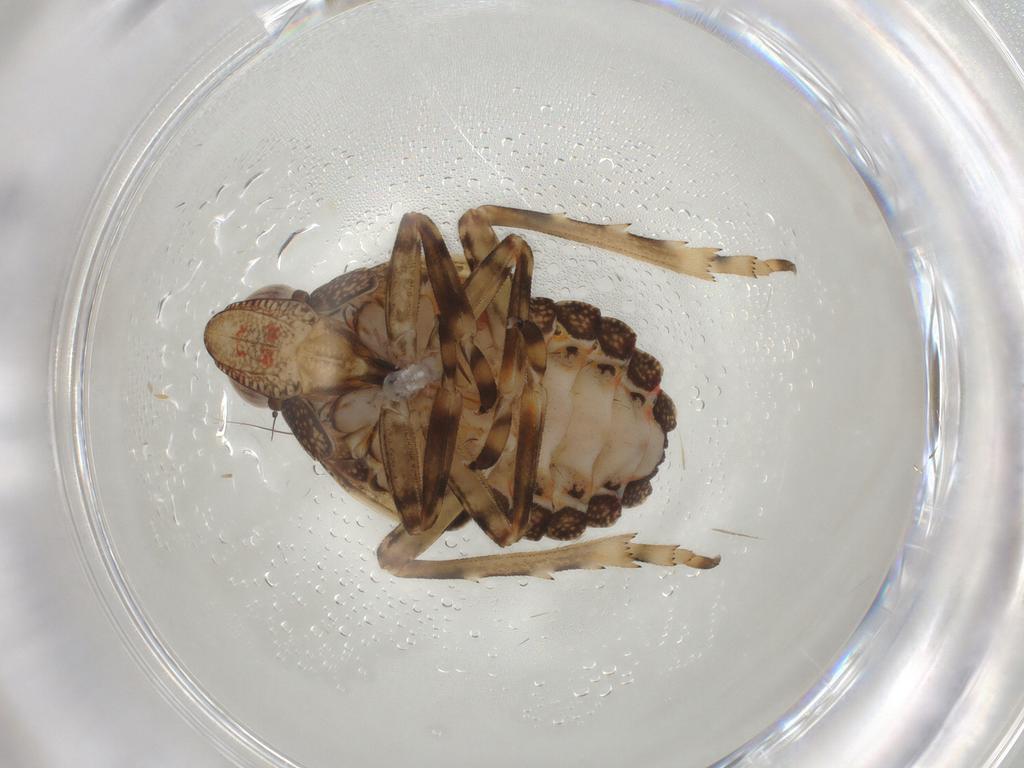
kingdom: Animalia
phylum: Arthropoda
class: Insecta
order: Hemiptera
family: Tropiduchidae
